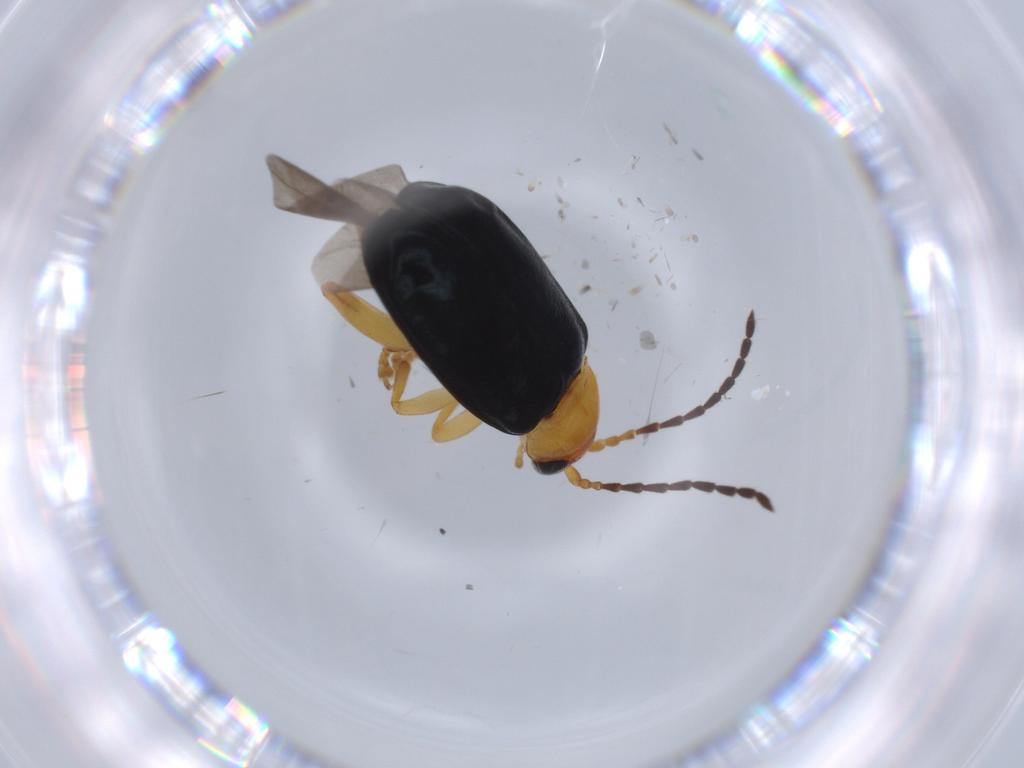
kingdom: Animalia
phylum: Arthropoda
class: Insecta
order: Coleoptera
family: Chrysomelidae
